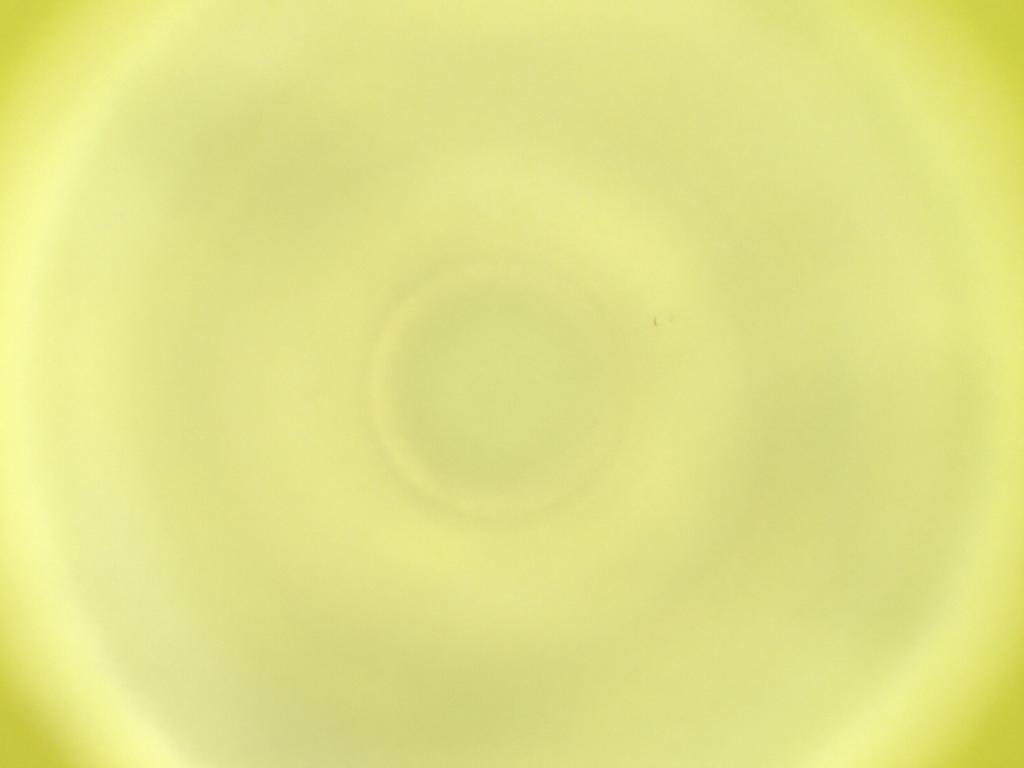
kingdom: Animalia
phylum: Arthropoda
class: Insecta
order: Diptera
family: Cecidomyiidae
